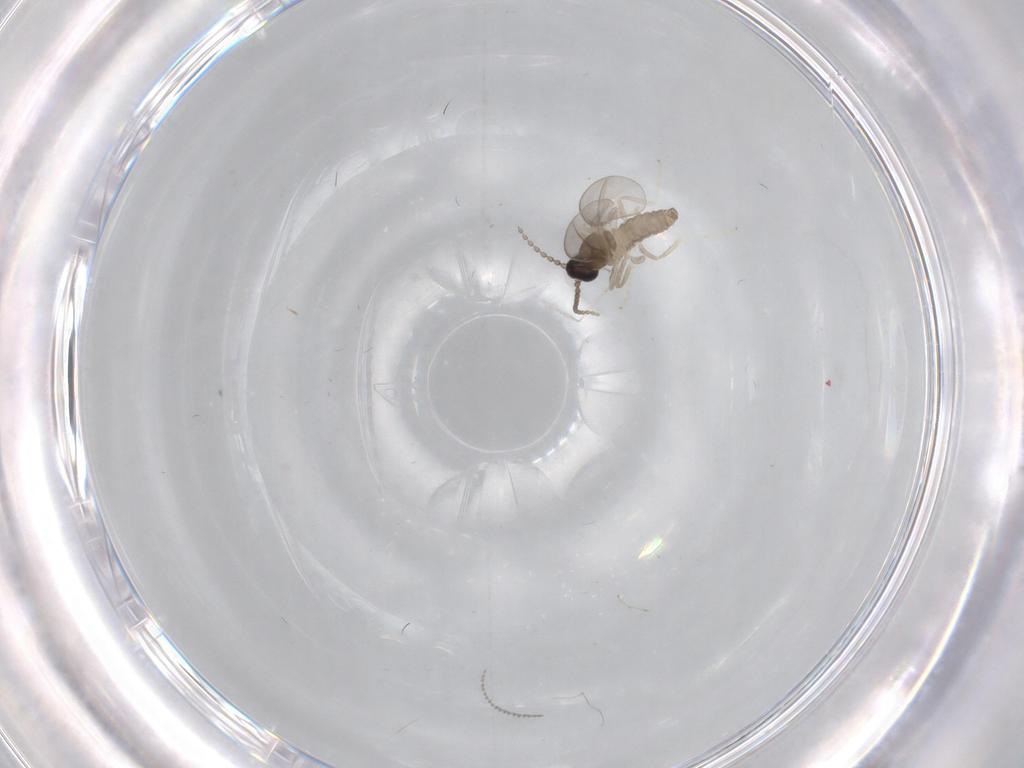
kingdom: Animalia
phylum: Arthropoda
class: Insecta
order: Diptera
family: Cecidomyiidae
